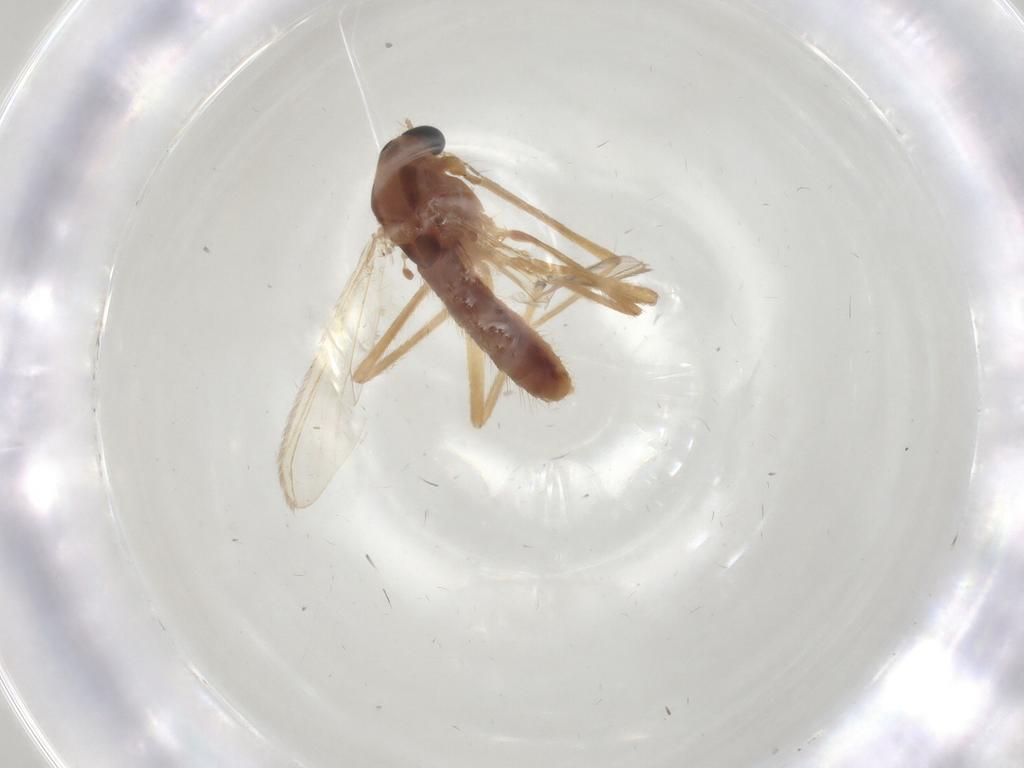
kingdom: Animalia
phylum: Arthropoda
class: Insecta
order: Diptera
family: Chironomidae
